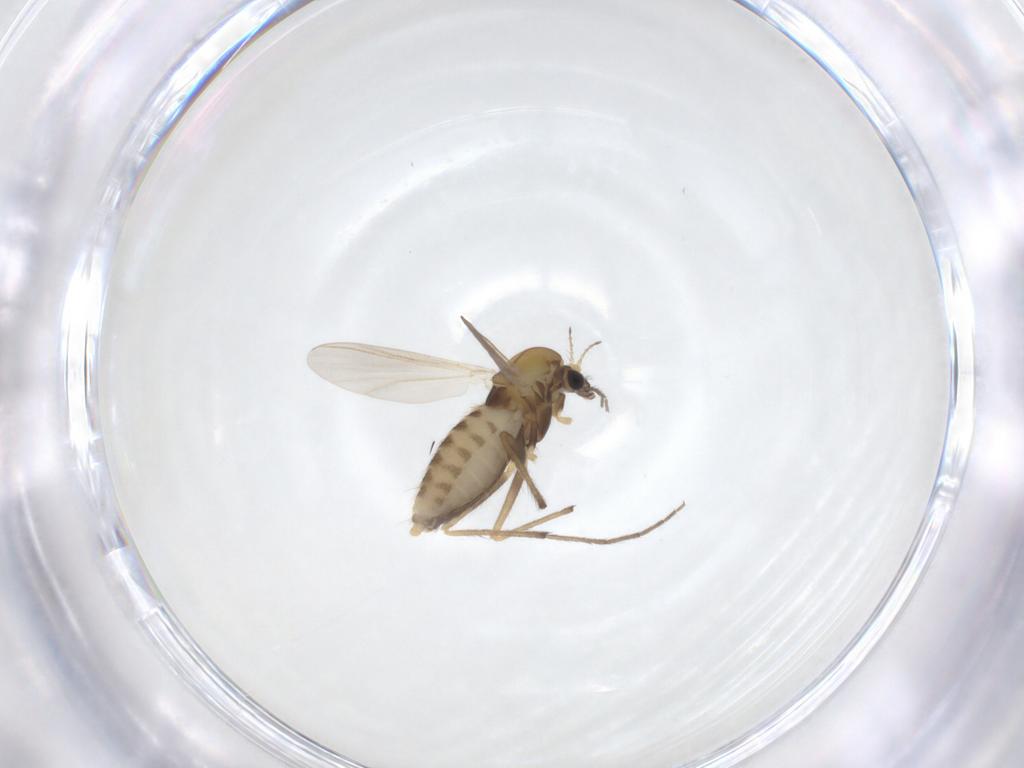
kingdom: Animalia
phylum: Arthropoda
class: Insecta
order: Diptera
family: Chironomidae
